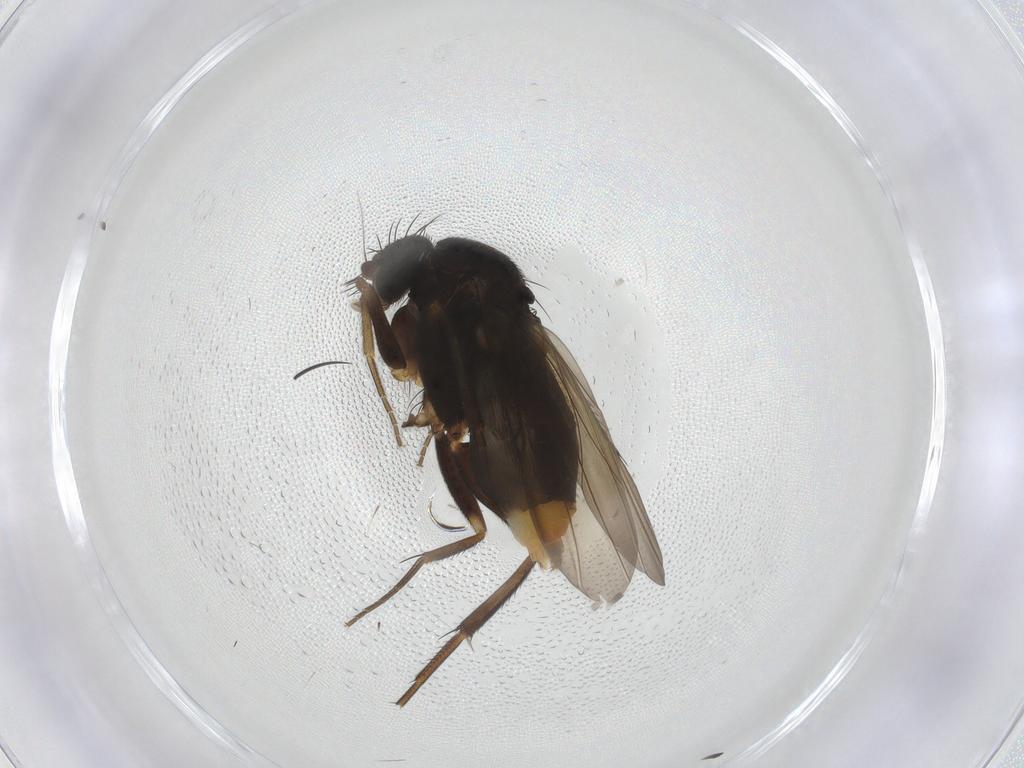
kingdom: Animalia
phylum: Arthropoda
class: Insecta
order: Diptera
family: Phoridae
